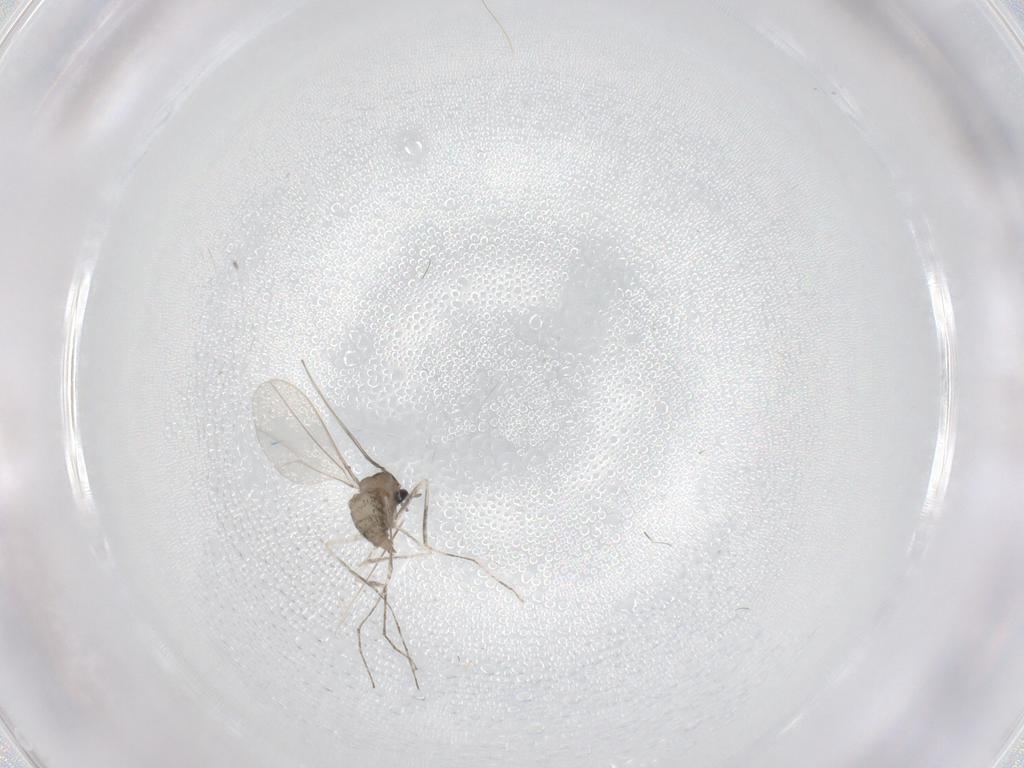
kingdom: Animalia
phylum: Arthropoda
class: Insecta
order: Diptera
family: Cecidomyiidae
